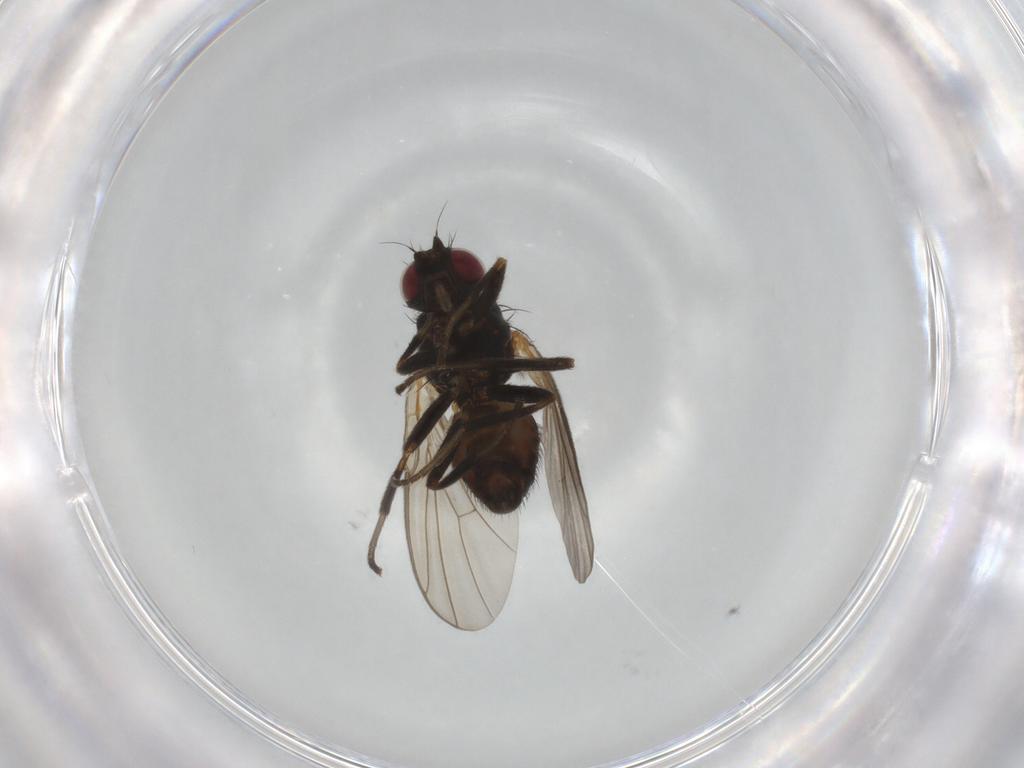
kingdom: Animalia
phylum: Arthropoda
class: Insecta
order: Diptera
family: Agromyzidae
